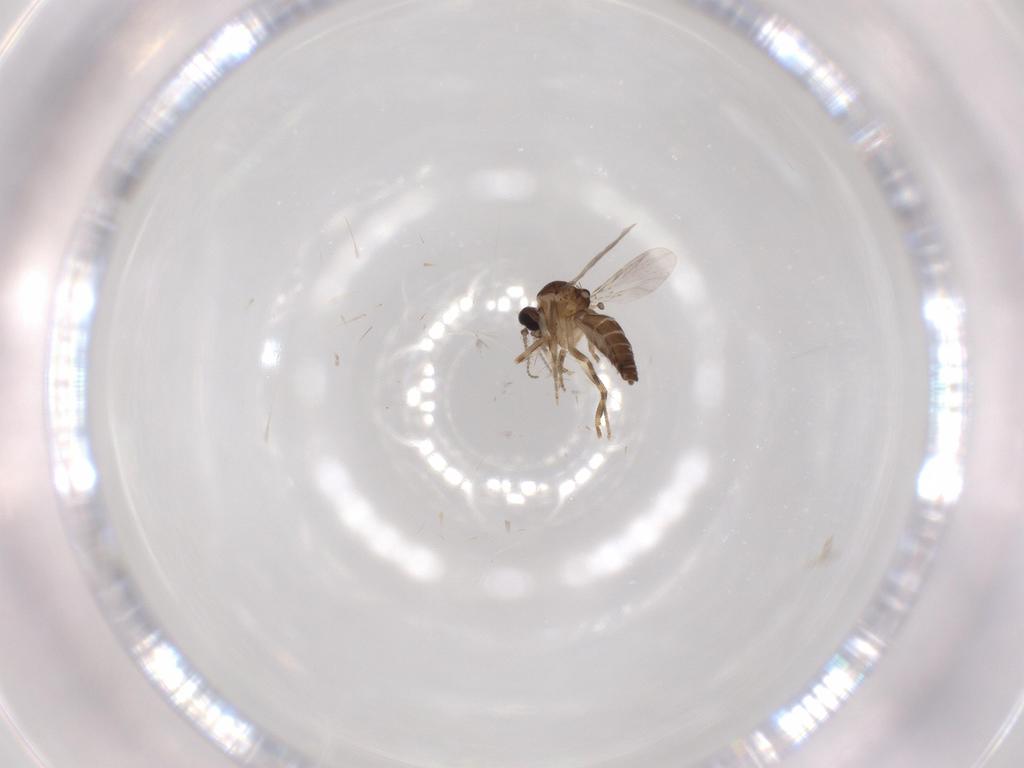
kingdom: Animalia
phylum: Arthropoda
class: Insecta
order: Diptera
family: Ceratopogonidae
